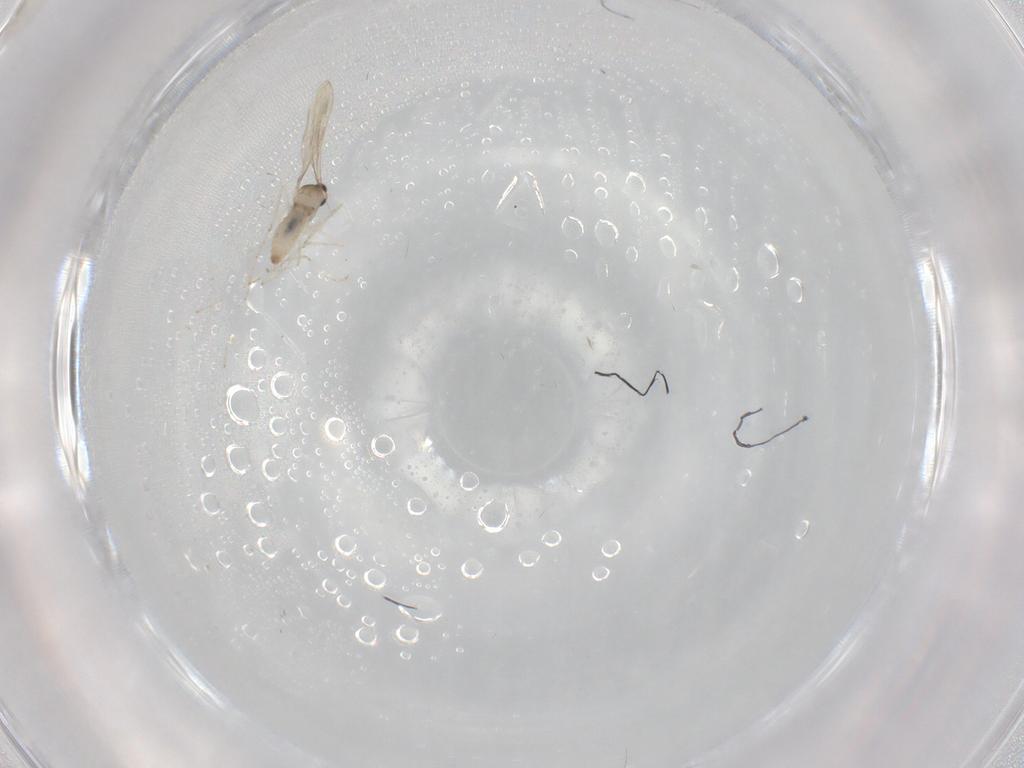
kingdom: Animalia
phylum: Arthropoda
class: Insecta
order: Diptera
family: Cecidomyiidae
